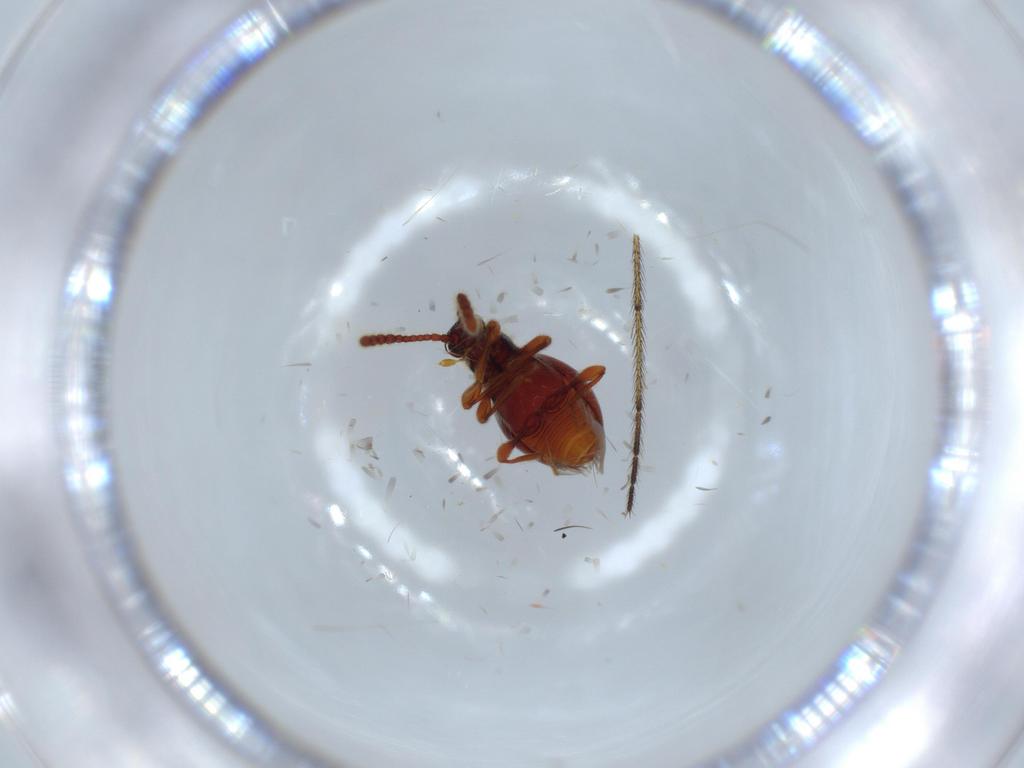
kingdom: Animalia
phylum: Arthropoda
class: Insecta
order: Coleoptera
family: Staphylinidae
